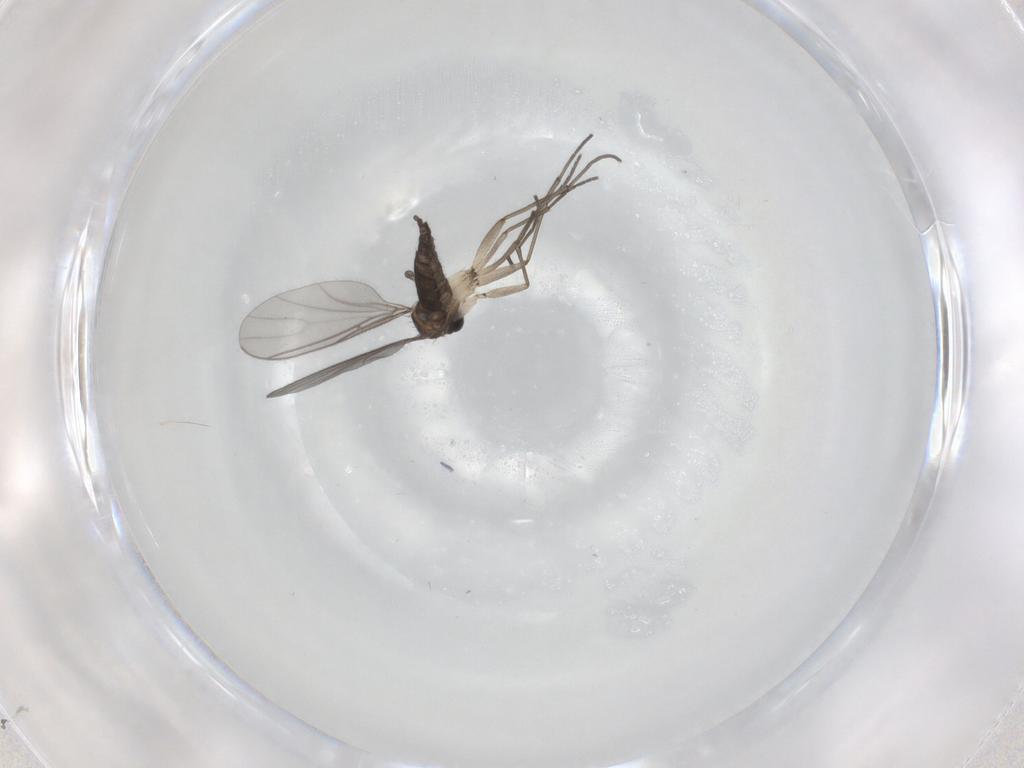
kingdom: Animalia
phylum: Arthropoda
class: Insecta
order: Diptera
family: Sciaridae
